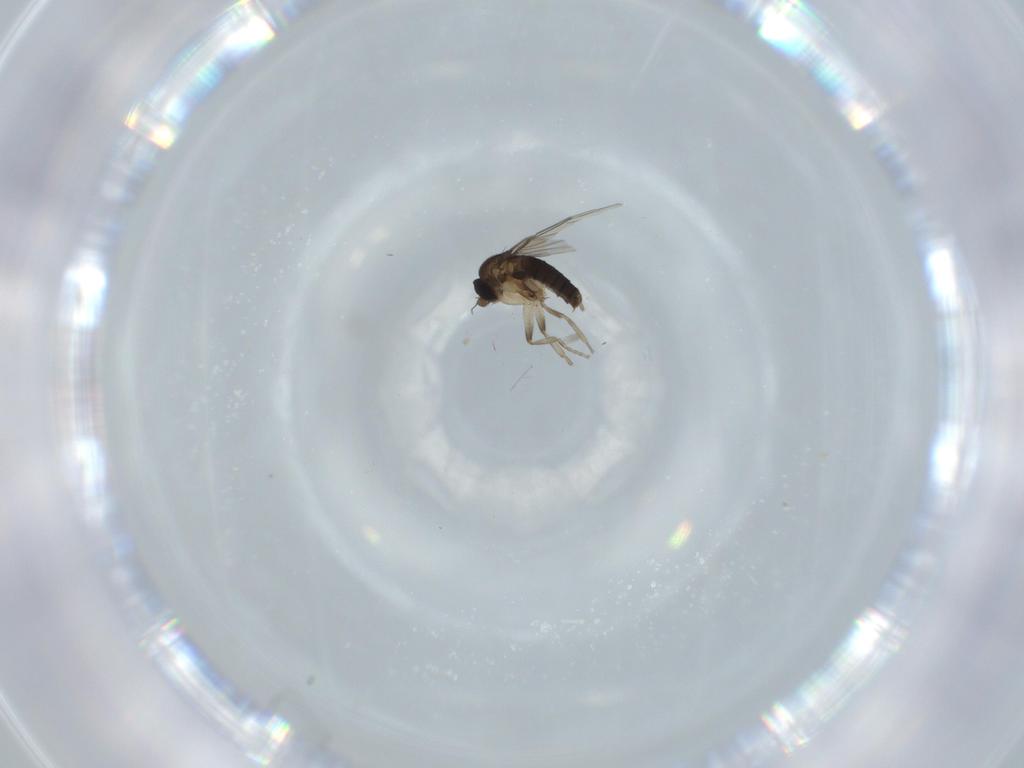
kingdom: Animalia
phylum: Arthropoda
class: Insecta
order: Diptera
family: Phoridae
